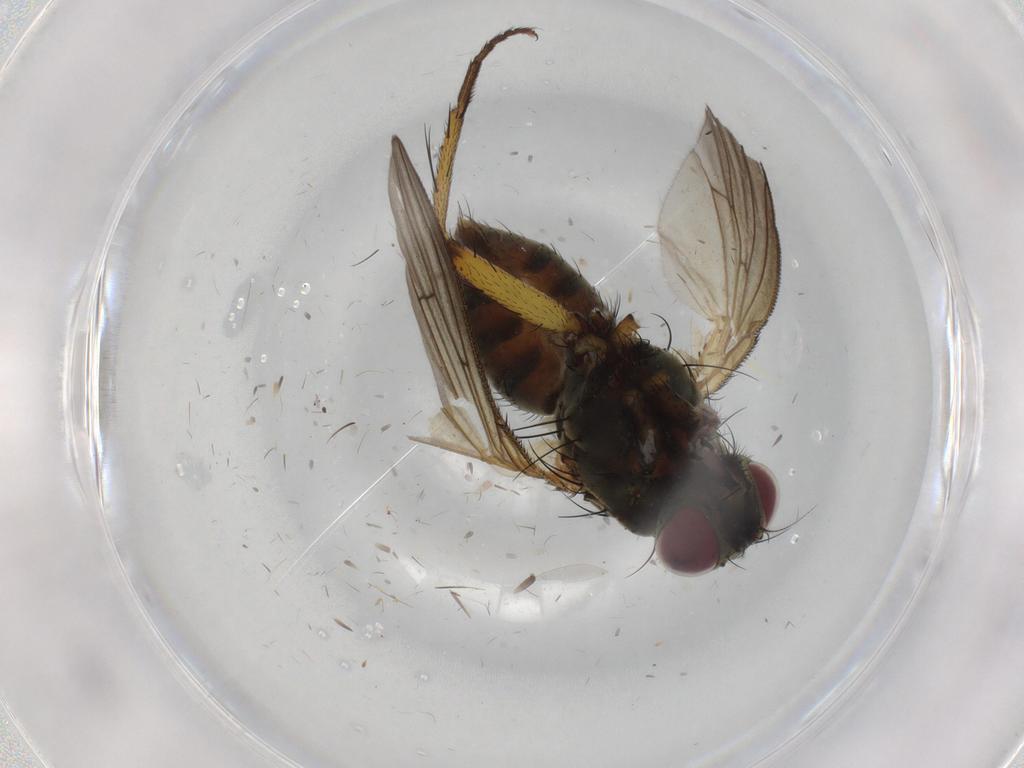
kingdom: Animalia
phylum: Arthropoda
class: Insecta
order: Diptera
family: Muscidae
